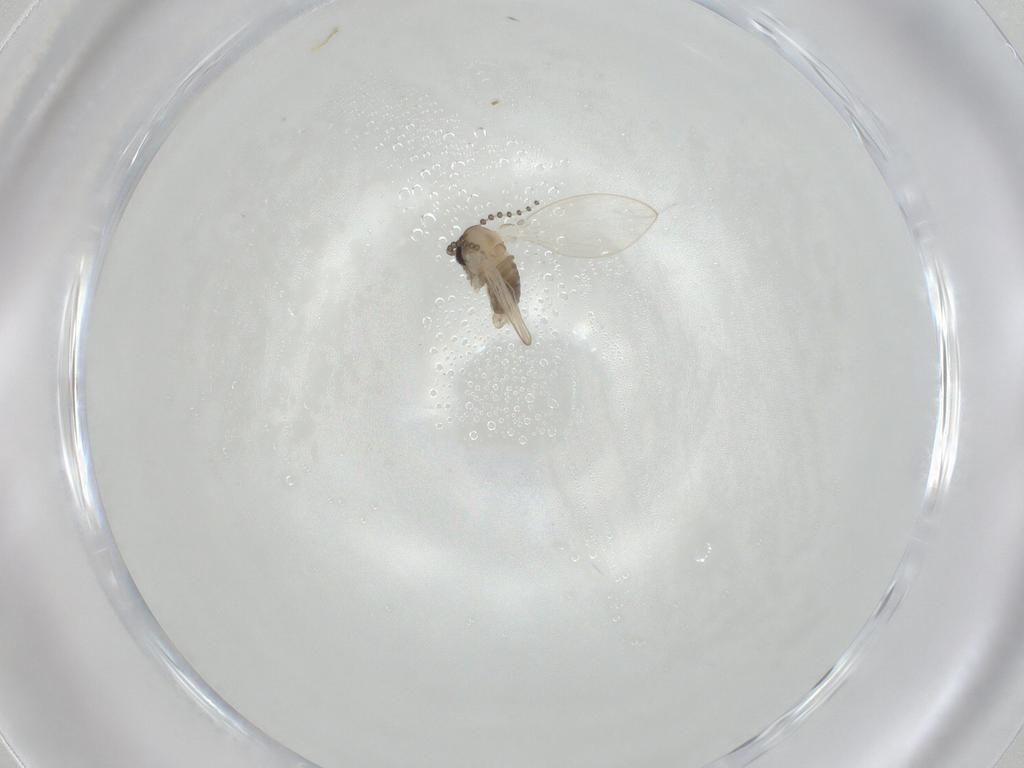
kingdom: Animalia
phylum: Arthropoda
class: Insecta
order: Diptera
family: Psychodidae
